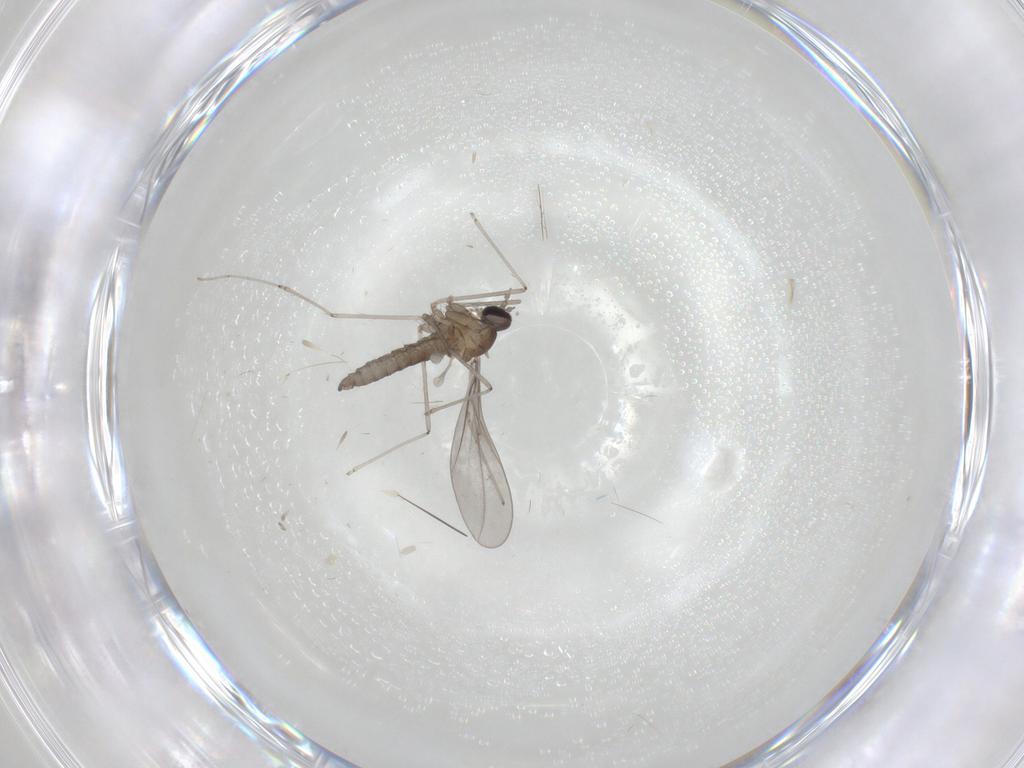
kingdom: Animalia
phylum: Arthropoda
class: Insecta
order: Diptera
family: Cecidomyiidae
